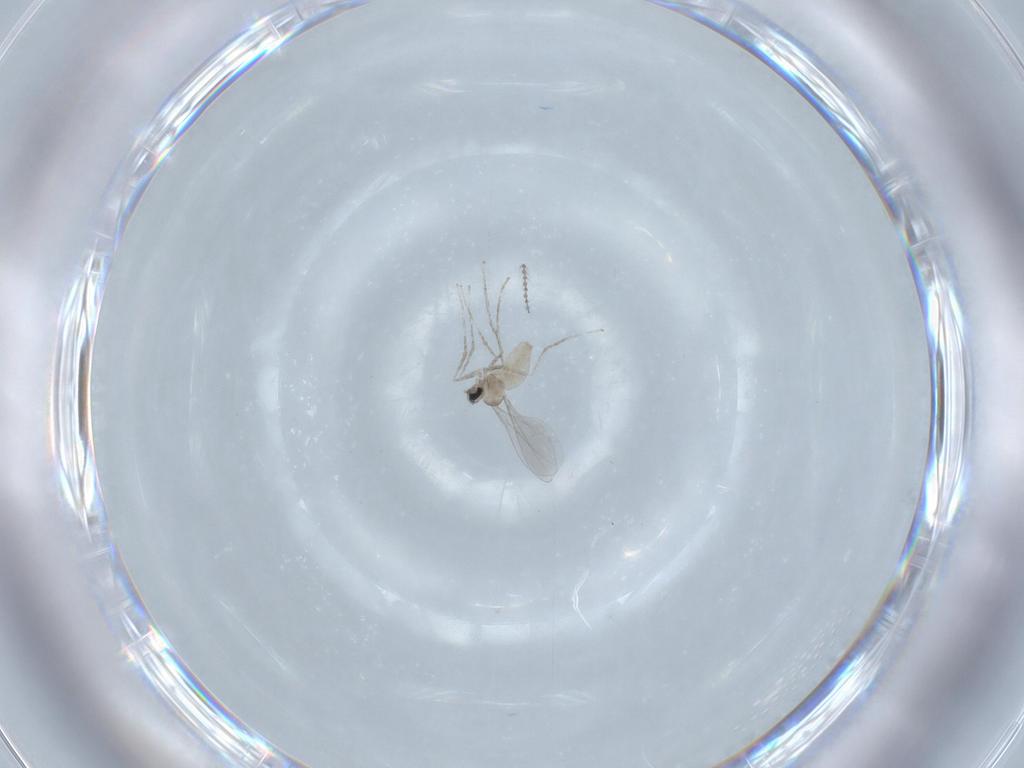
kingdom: Animalia
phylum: Arthropoda
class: Insecta
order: Diptera
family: Cecidomyiidae
